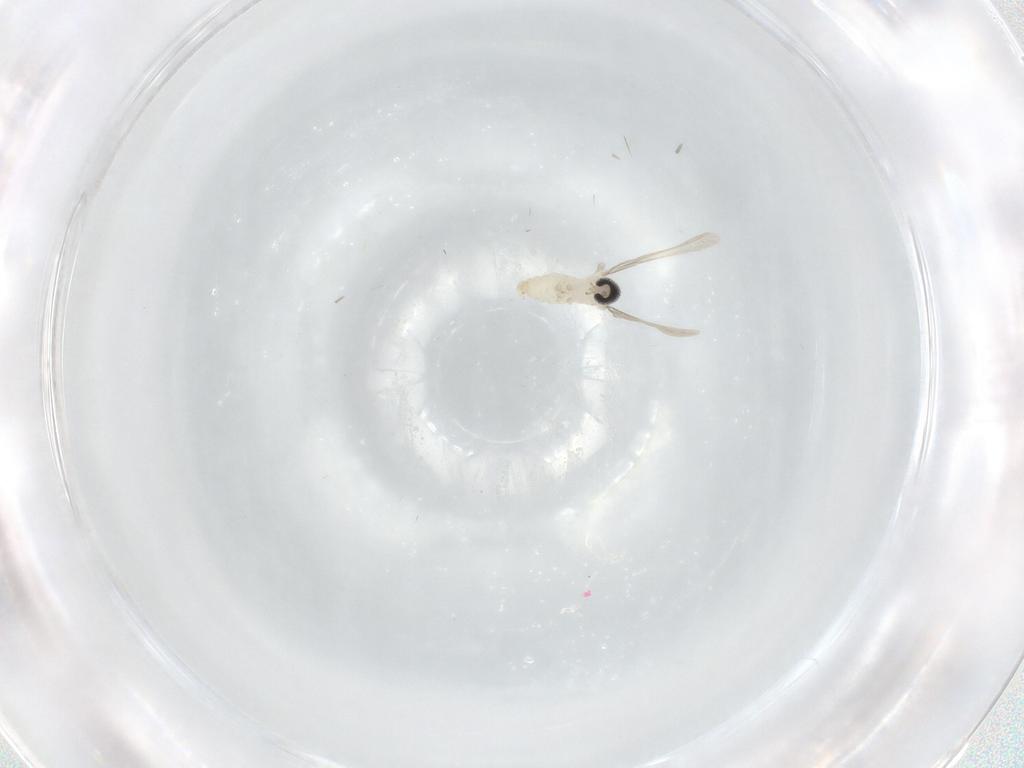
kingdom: Animalia
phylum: Arthropoda
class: Insecta
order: Diptera
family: Cecidomyiidae
